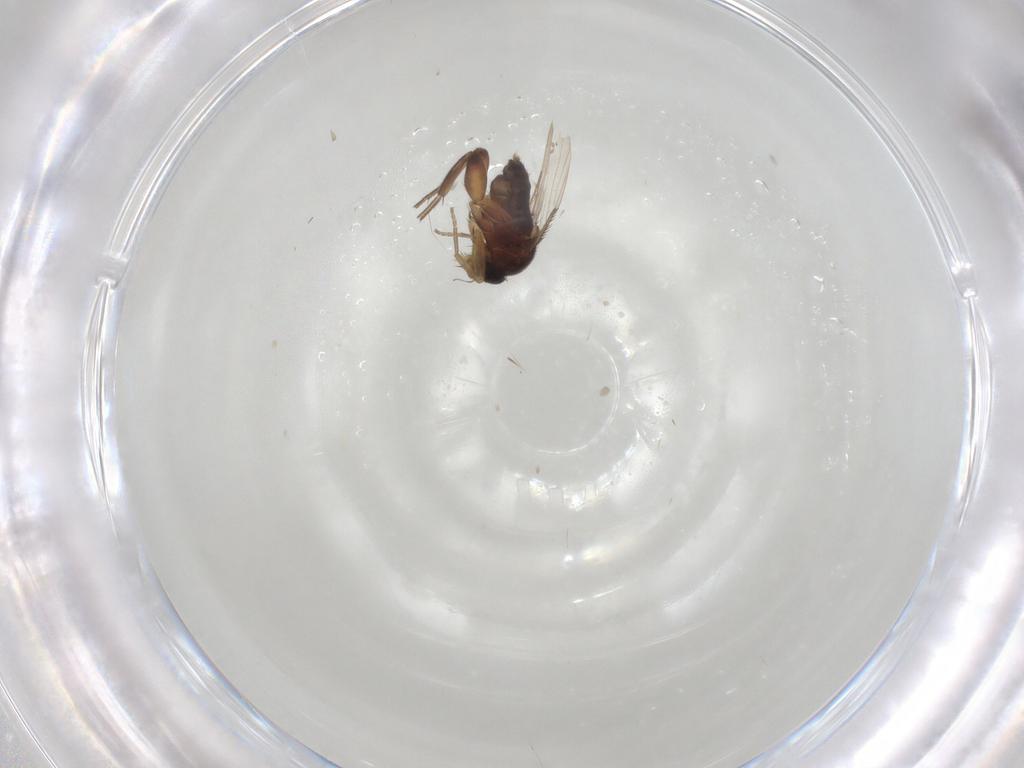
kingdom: Animalia
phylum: Arthropoda
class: Insecta
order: Diptera
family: Phoridae
